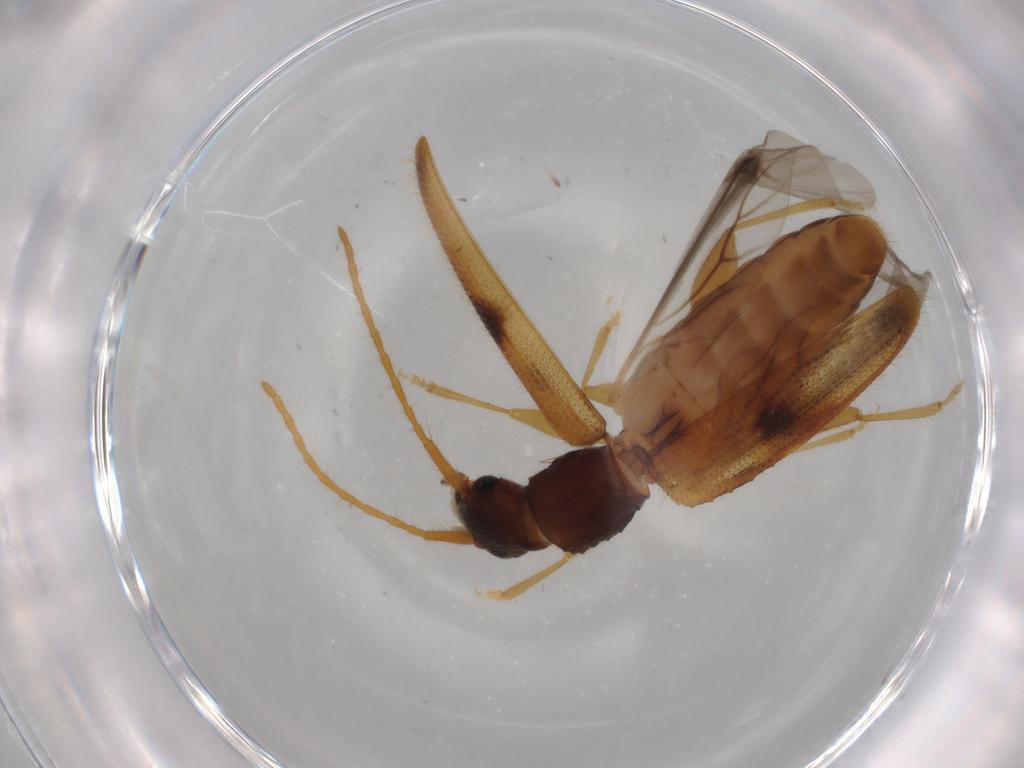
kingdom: Animalia
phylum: Arthropoda
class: Insecta
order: Coleoptera
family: Silvanidae
